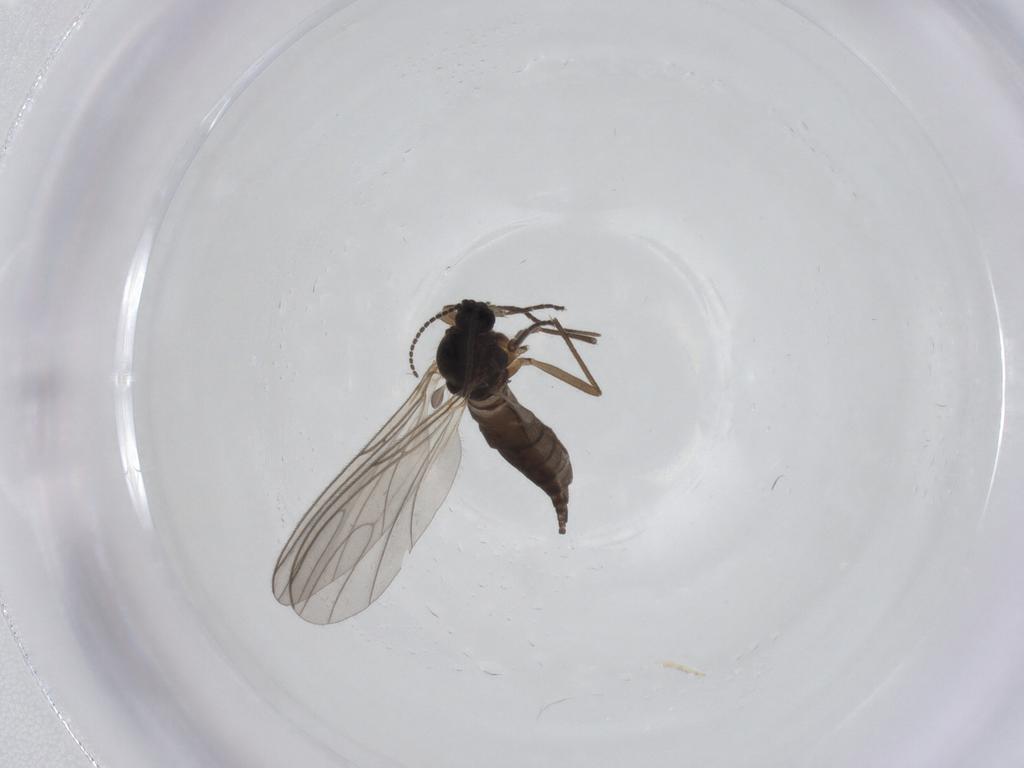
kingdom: Animalia
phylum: Arthropoda
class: Insecta
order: Diptera
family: Sciaridae
